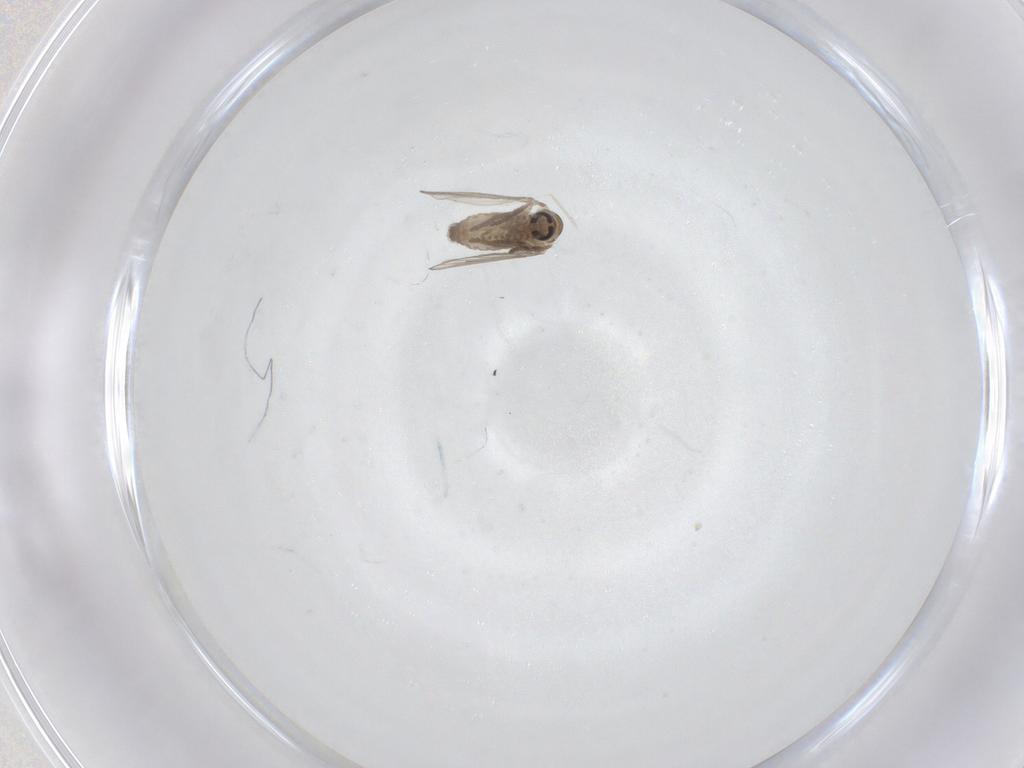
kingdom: Animalia
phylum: Arthropoda
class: Insecta
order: Diptera
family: Psychodidae
